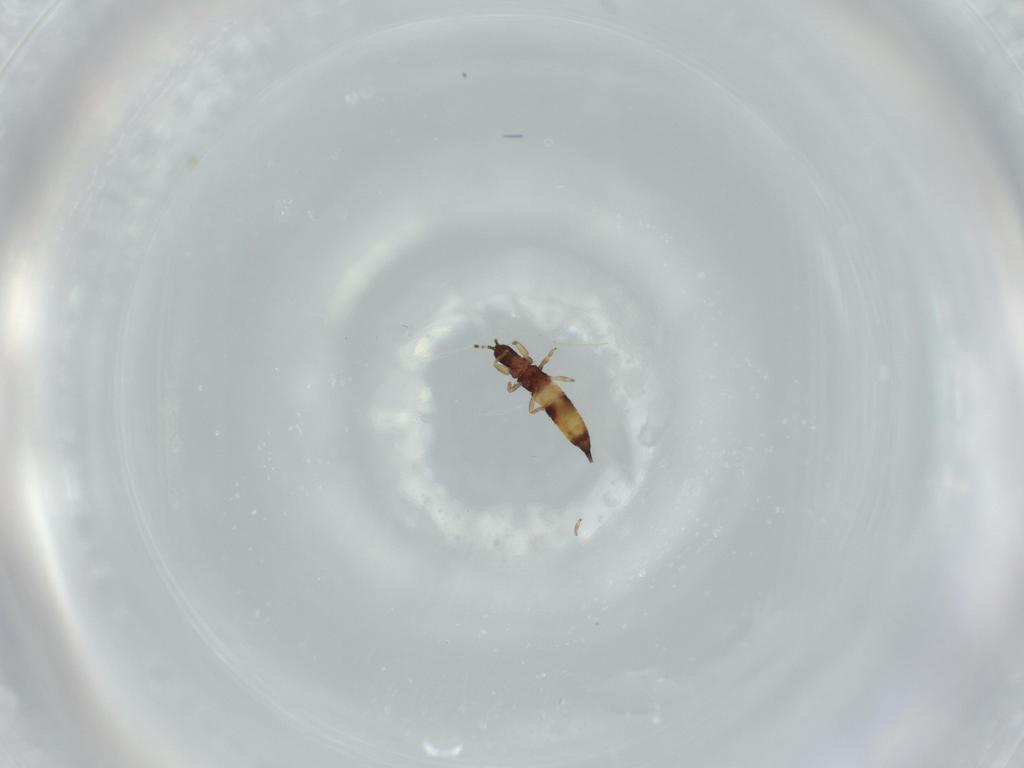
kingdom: Animalia
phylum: Arthropoda
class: Insecta
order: Thysanoptera
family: Phlaeothripidae
